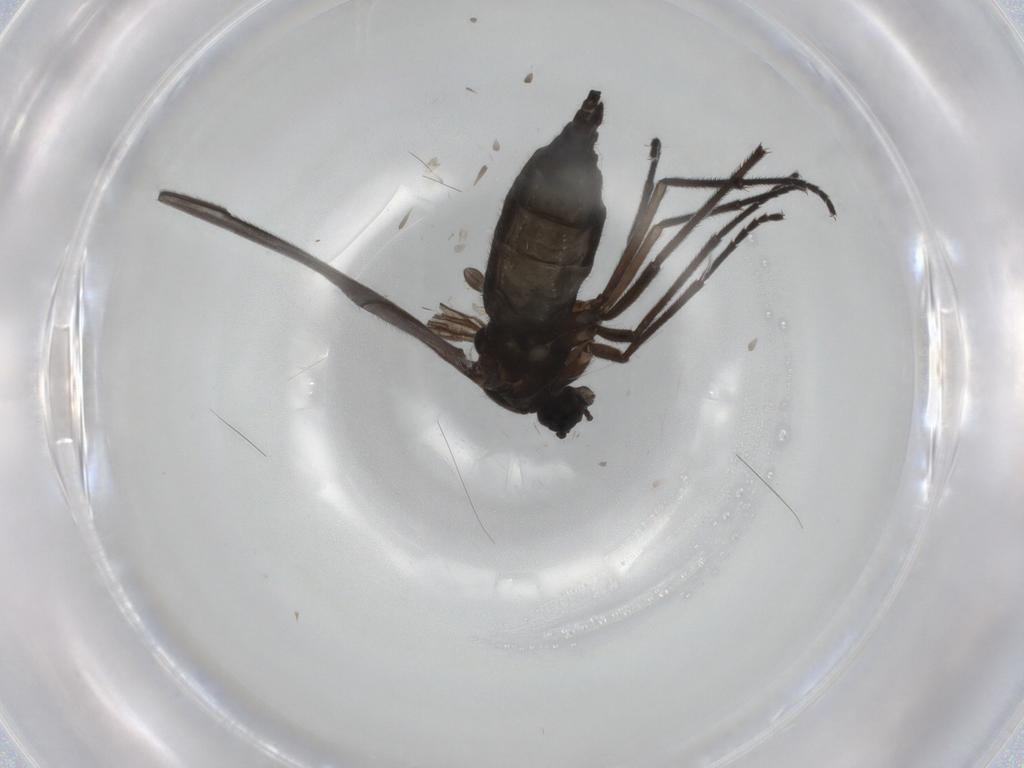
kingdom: Animalia
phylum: Arthropoda
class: Insecta
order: Diptera
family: Sciaridae
